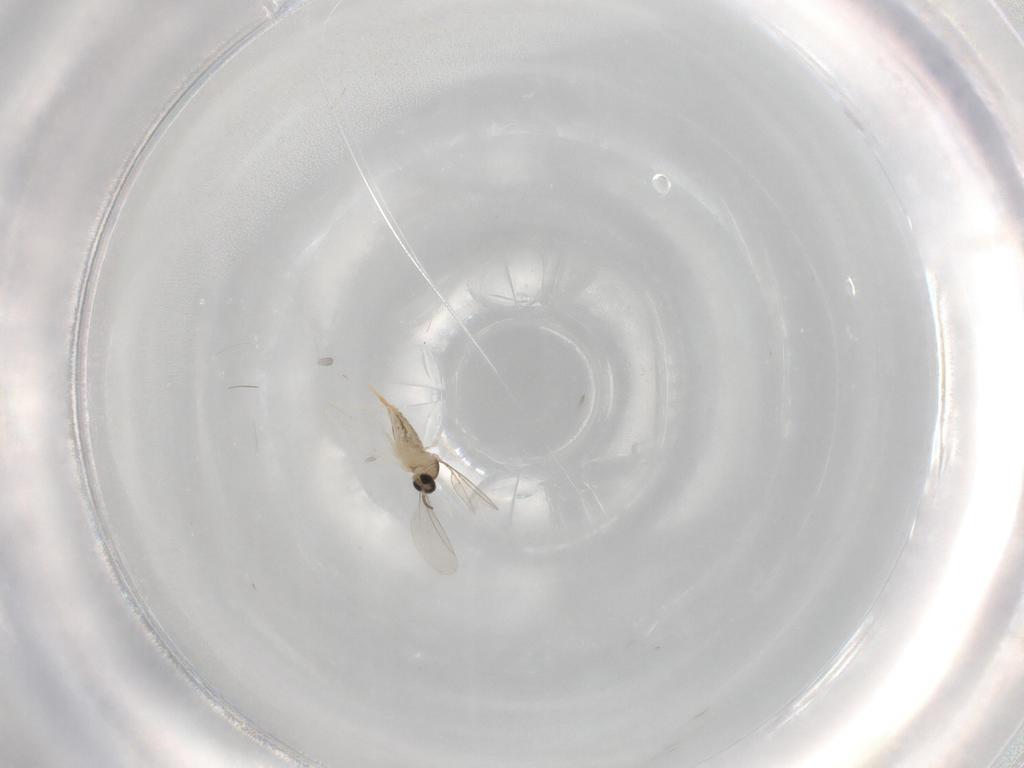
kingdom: Animalia
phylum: Arthropoda
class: Insecta
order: Diptera
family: Cecidomyiidae
